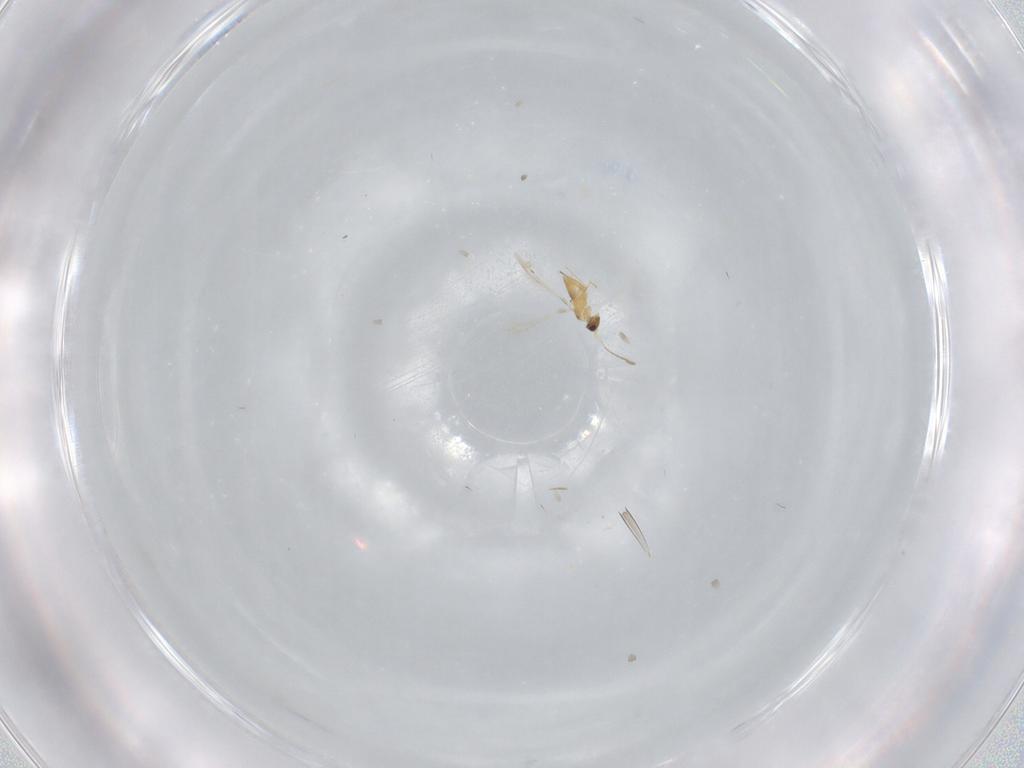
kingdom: Animalia
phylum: Arthropoda
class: Insecta
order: Hymenoptera
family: Mymaridae
